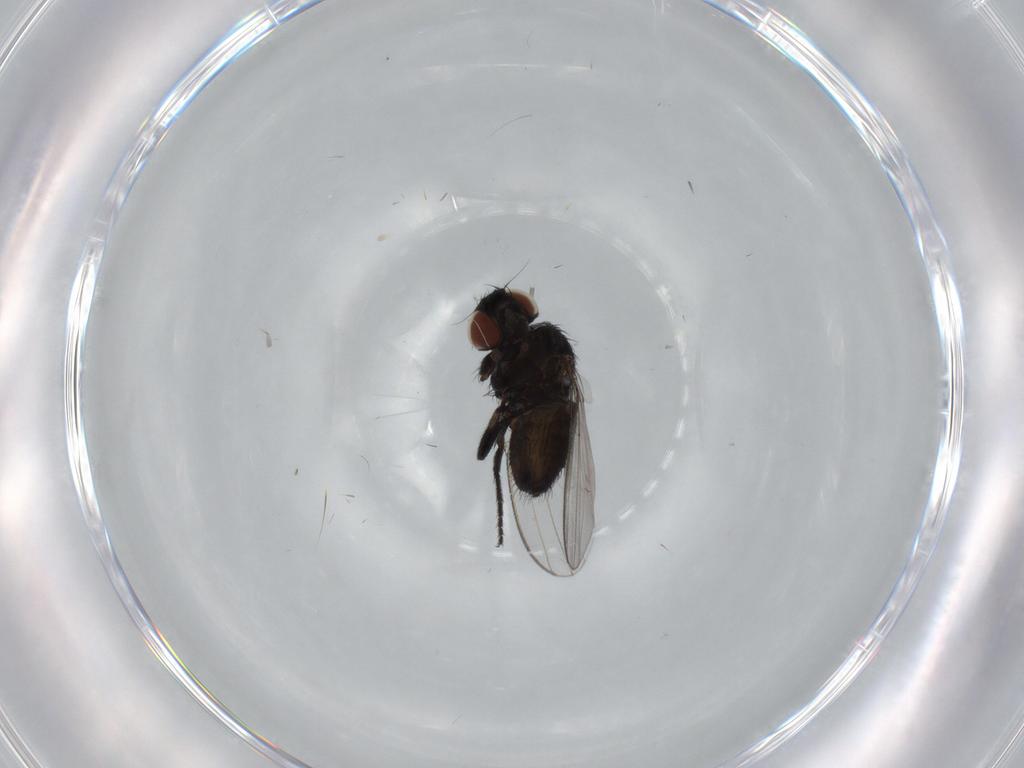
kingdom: Animalia
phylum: Arthropoda
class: Insecta
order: Diptera
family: Milichiidae
